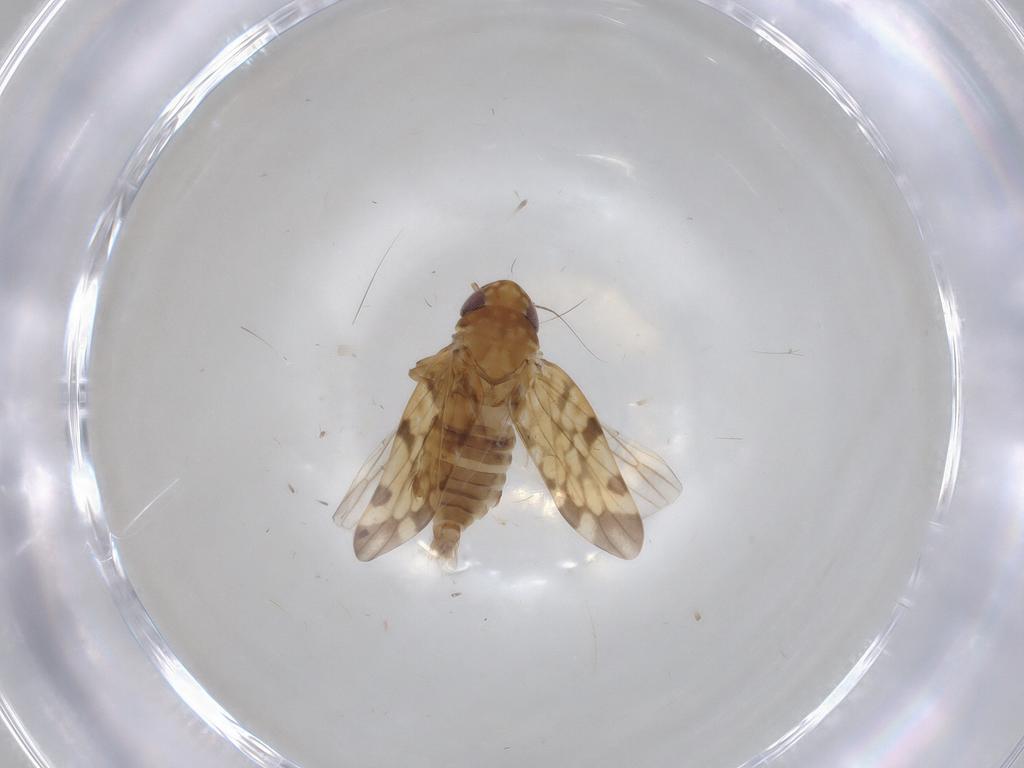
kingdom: Animalia
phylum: Arthropoda
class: Insecta
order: Hemiptera
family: Cicadellidae
